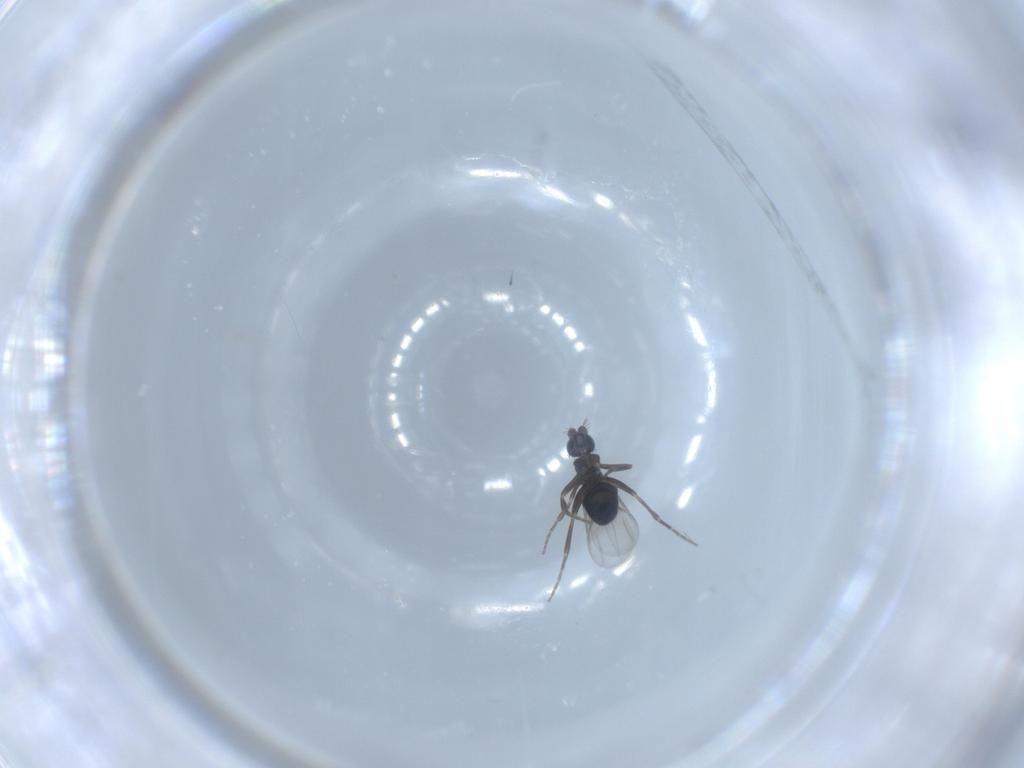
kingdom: Animalia
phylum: Arthropoda
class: Insecta
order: Diptera
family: Phoridae
